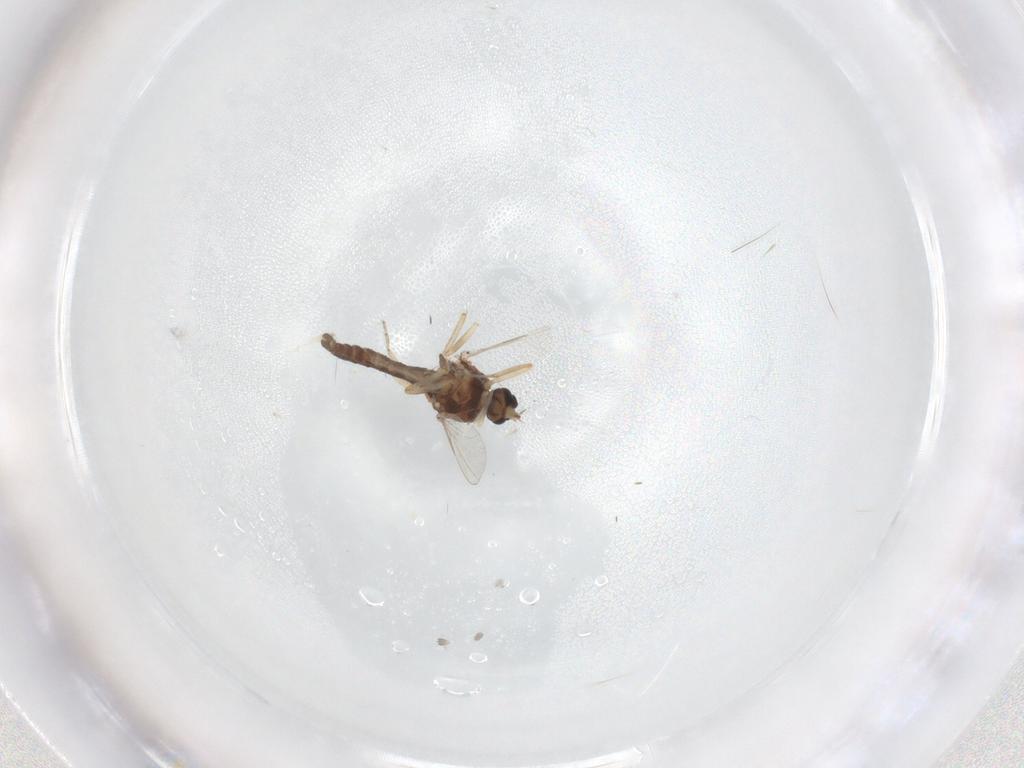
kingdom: Animalia
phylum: Arthropoda
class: Insecta
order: Diptera
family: Ceratopogonidae
